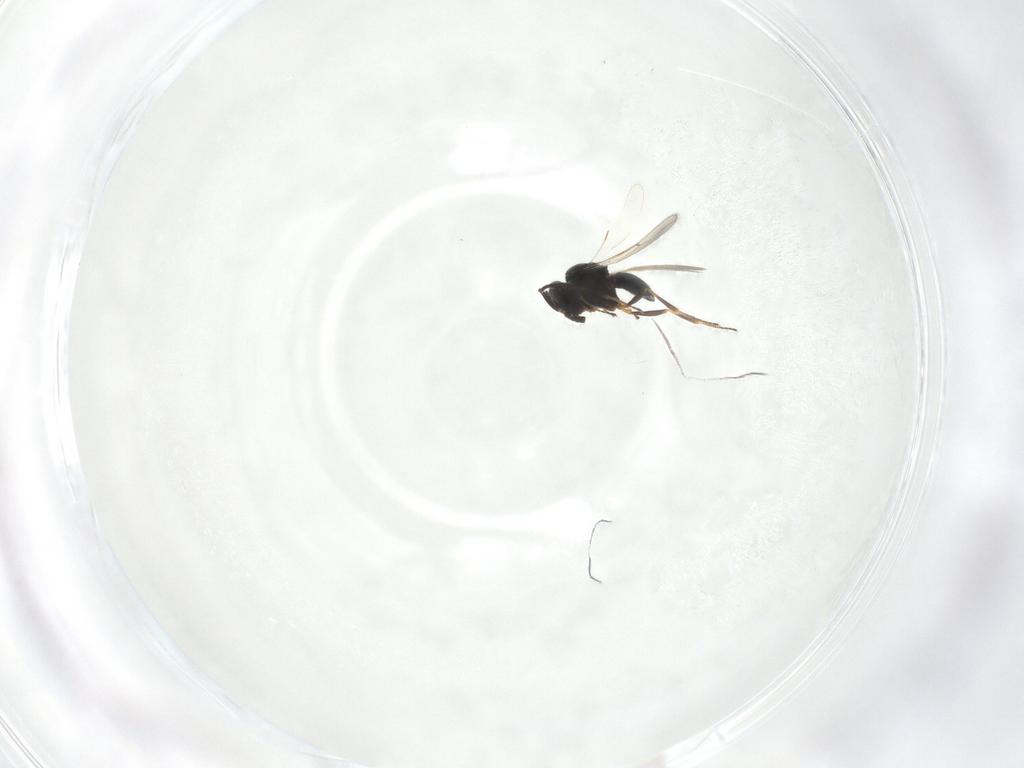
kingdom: Animalia
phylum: Arthropoda
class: Insecta
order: Hymenoptera
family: Scelionidae
